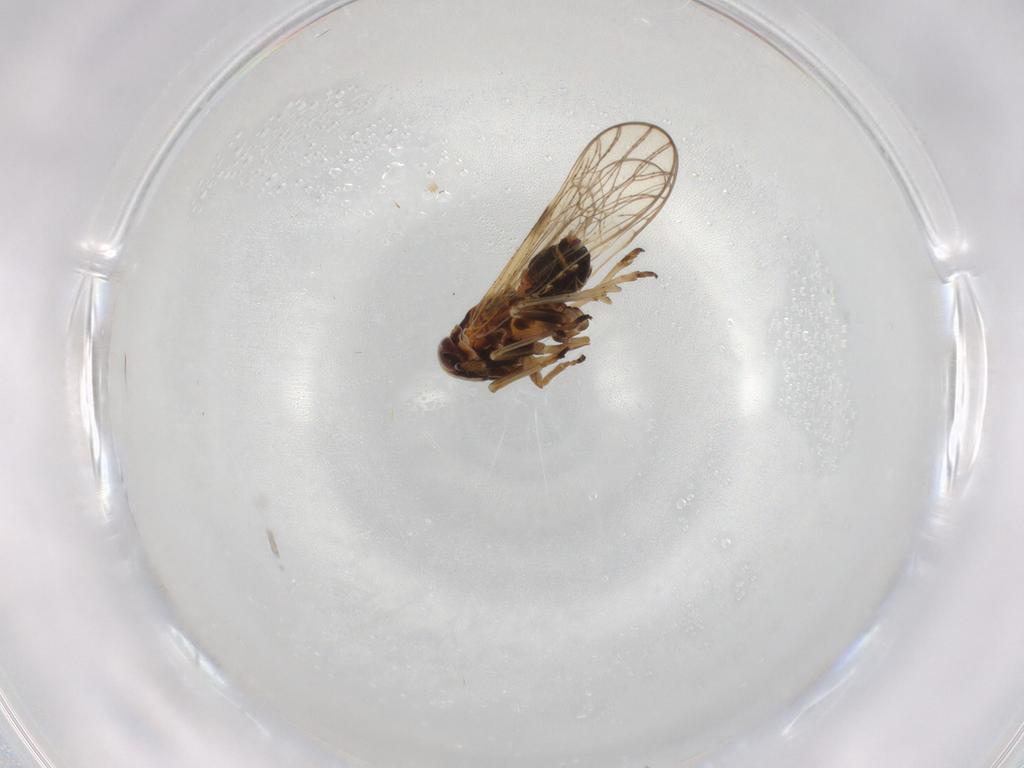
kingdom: Animalia
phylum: Arthropoda
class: Insecta
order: Hemiptera
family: Delphacidae
